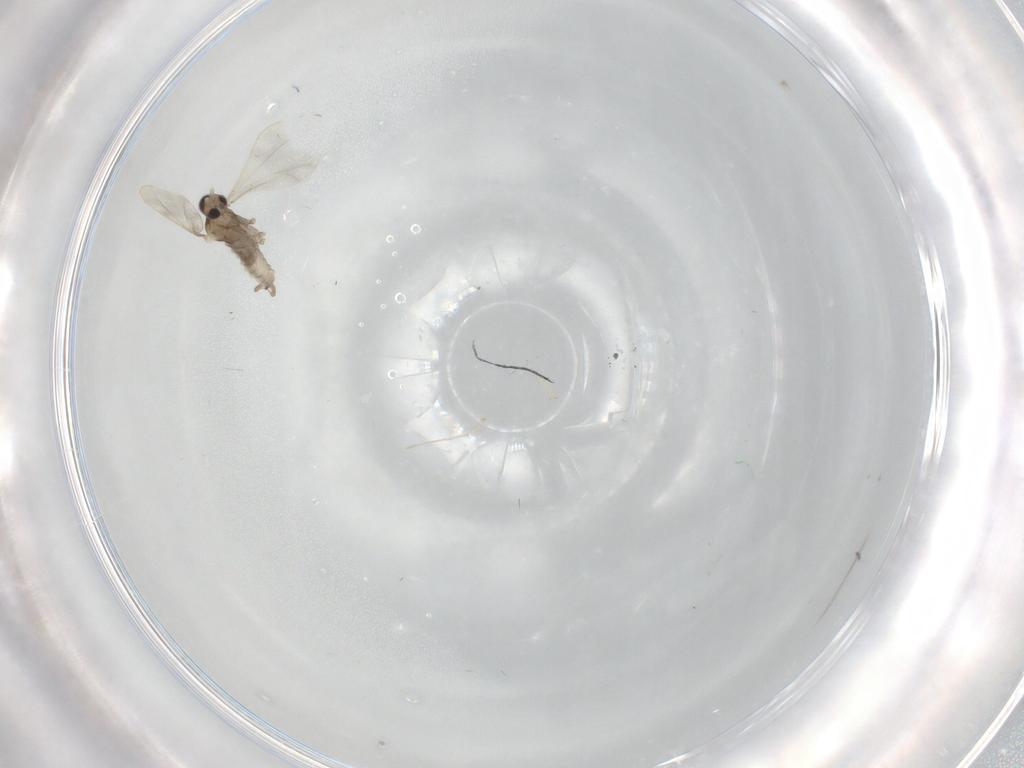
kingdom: Animalia
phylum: Arthropoda
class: Insecta
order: Diptera
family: Cecidomyiidae
